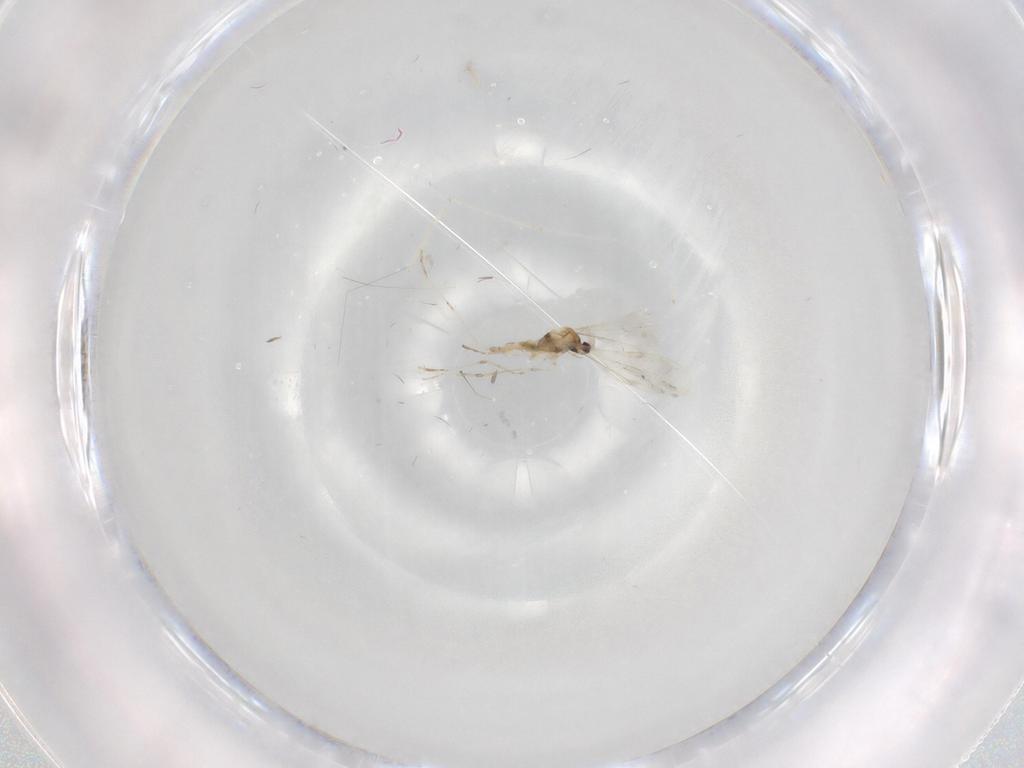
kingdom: Animalia
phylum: Arthropoda
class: Insecta
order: Diptera
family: Cecidomyiidae
